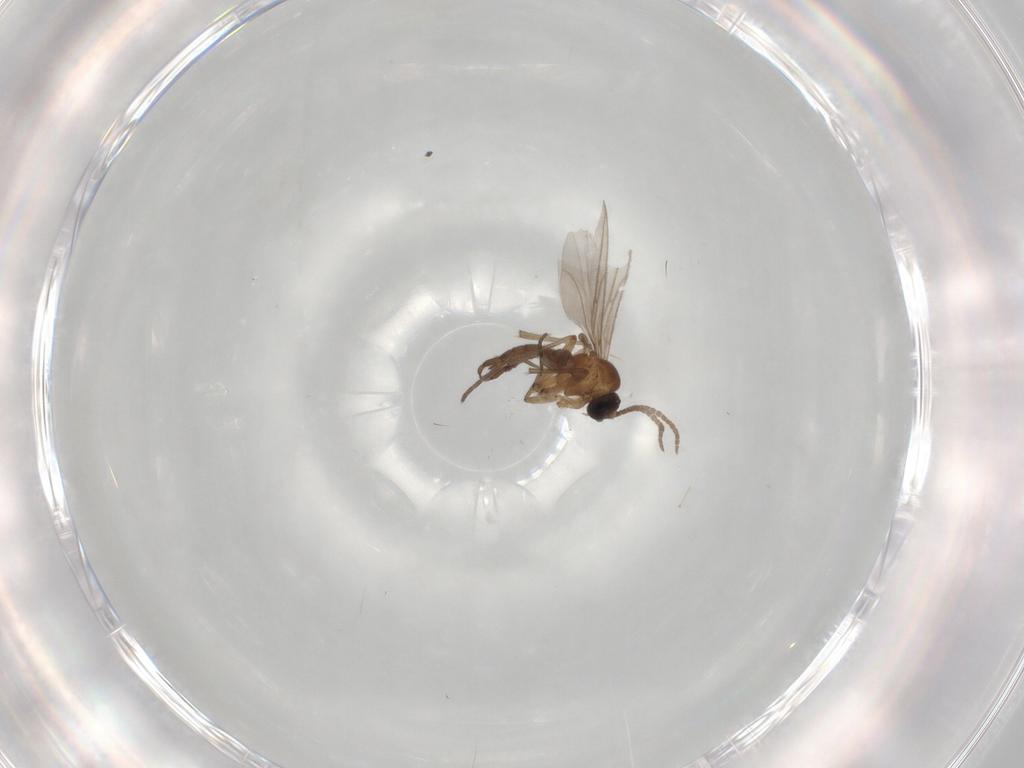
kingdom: Animalia
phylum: Arthropoda
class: Insecta
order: Diptera
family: Sciaridae
